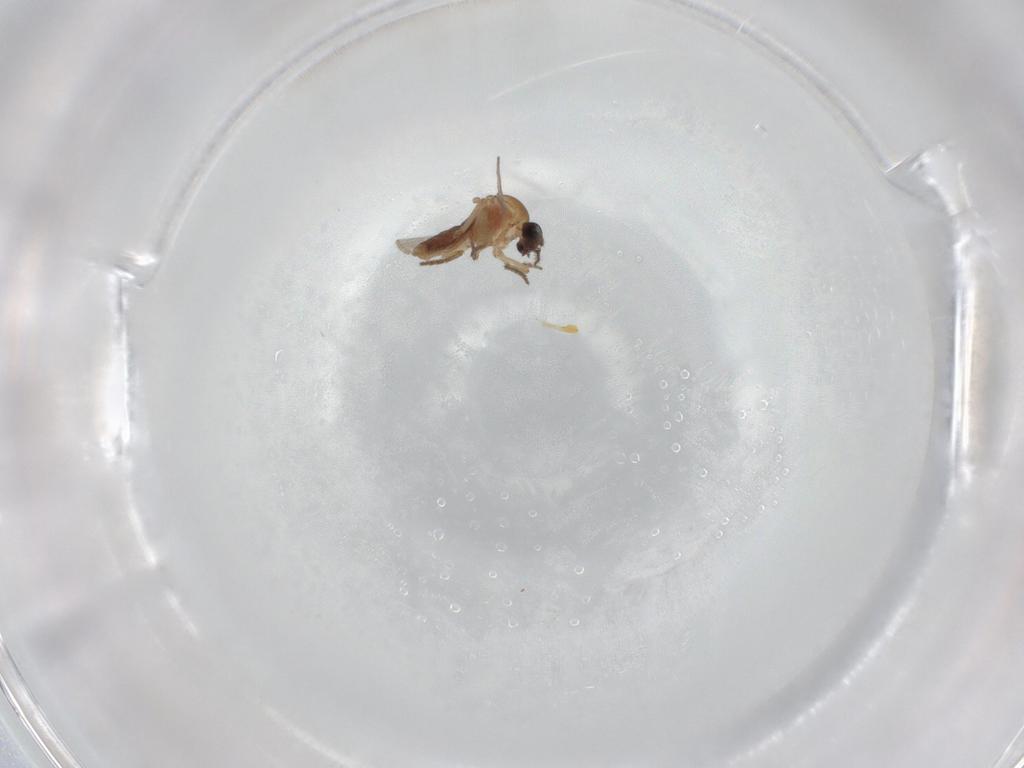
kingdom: Animalia
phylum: Arthropoda
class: Insecta
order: Diptera
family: Ceratopogonidae
